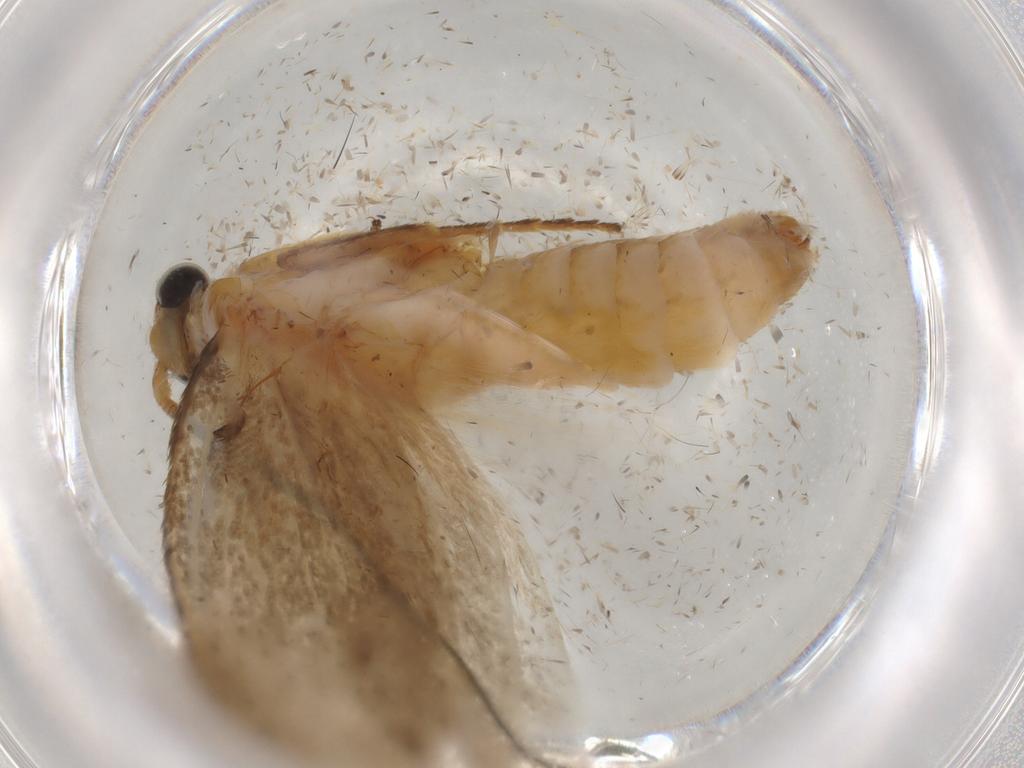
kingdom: Animalia
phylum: Arthropoda
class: Insecta
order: Lepidoptera
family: Tineidae
